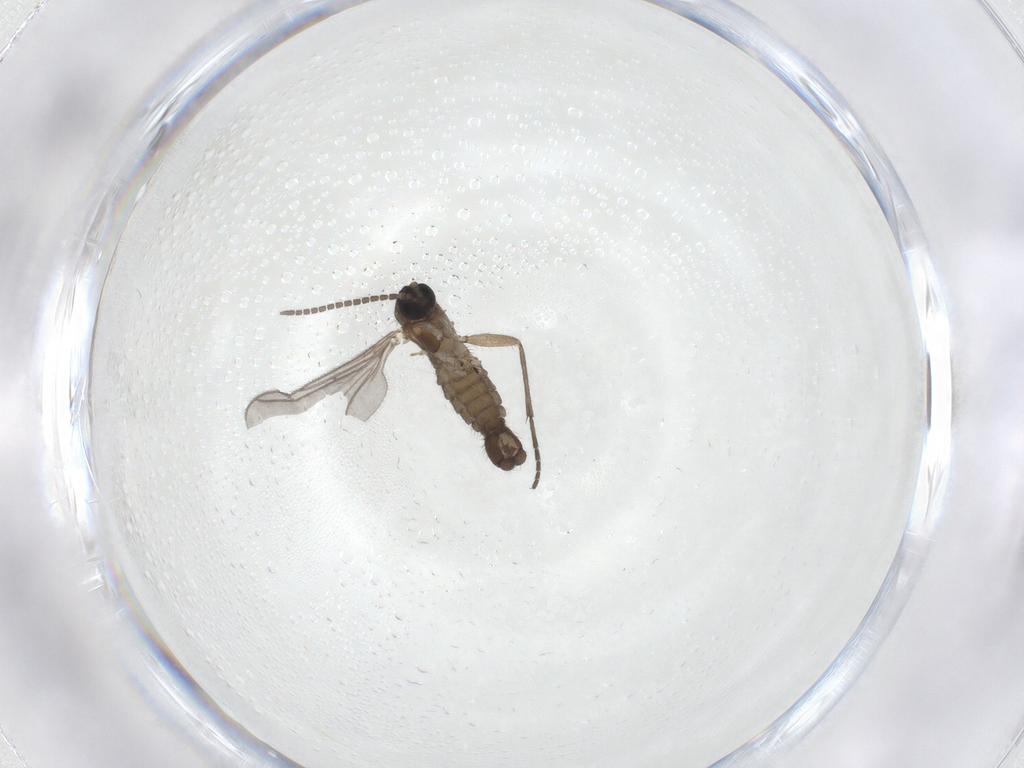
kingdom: Animalia
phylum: Arthropoda
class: Insecta
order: Diptera
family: Sciaridae
